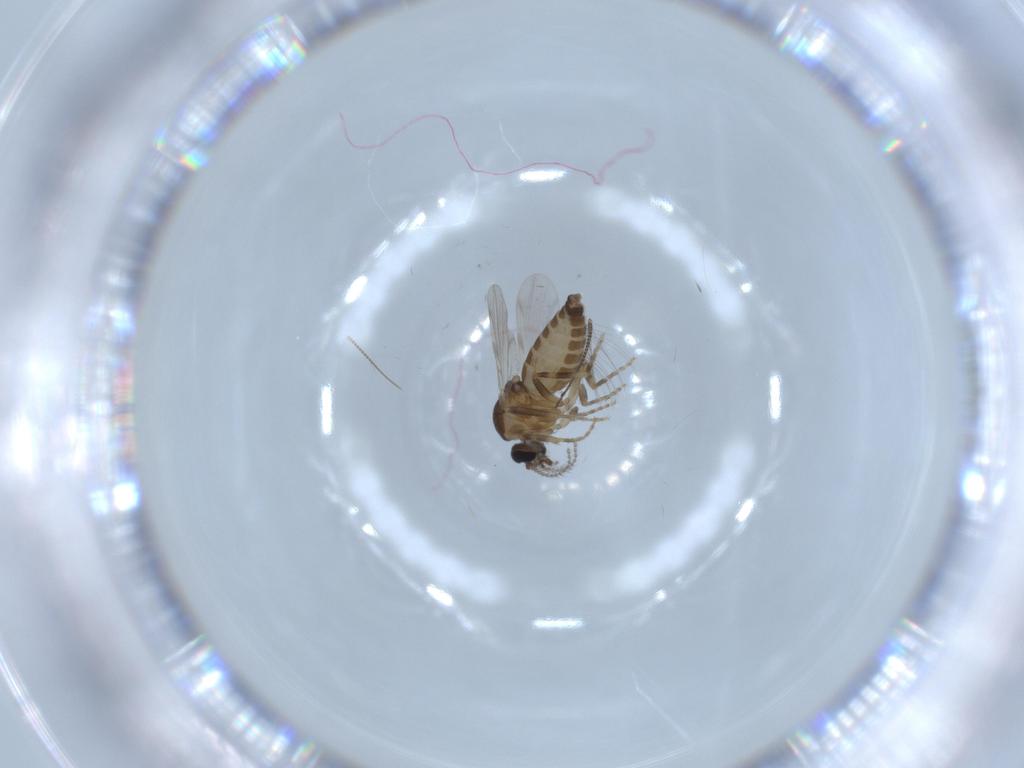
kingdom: Animalia
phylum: Arthropoda
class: Insecta
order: Diptera
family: Ceratopogonidae
